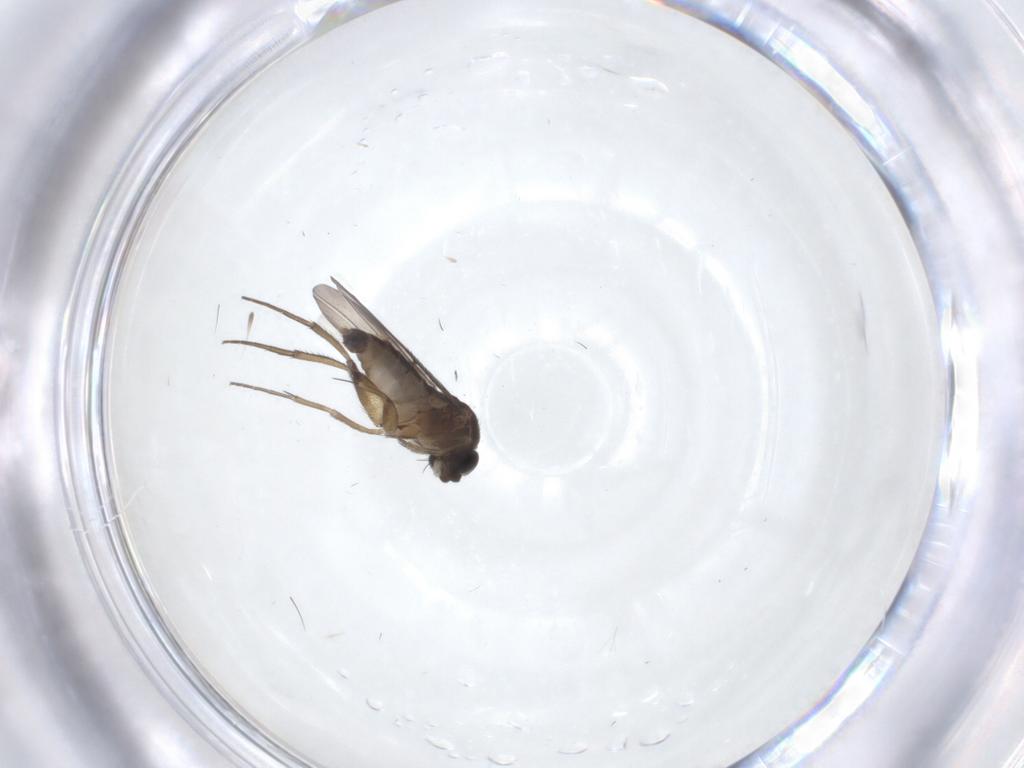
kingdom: Animalia
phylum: Arthropoda
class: Insecta
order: Diptera
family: Phoridae
